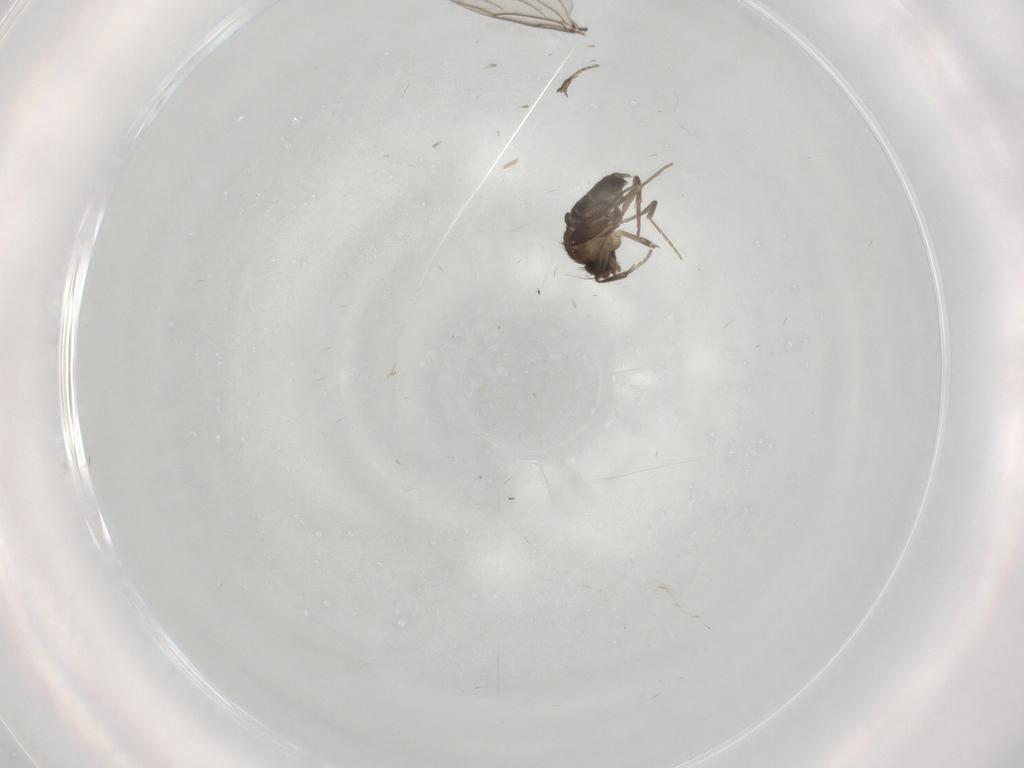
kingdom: Animalia
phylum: Arthropoda
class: Insecta
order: Diptera
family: Phoridae
